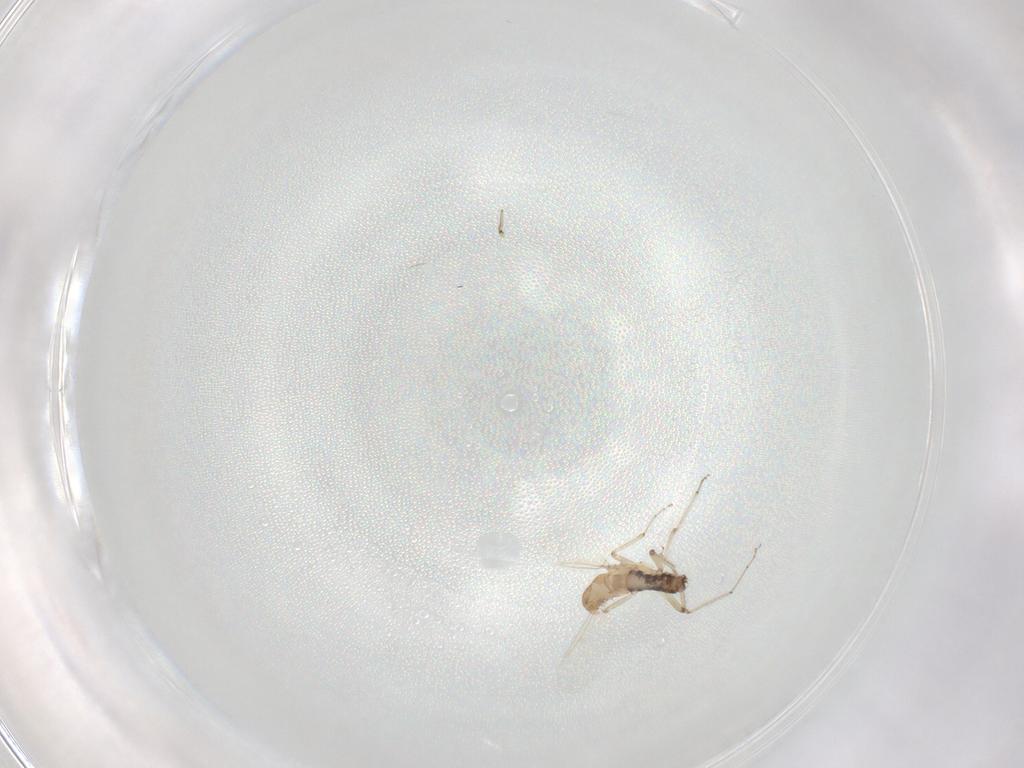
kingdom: Animalia
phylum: Arthropoda
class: Insecta
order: Diptera
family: Ceratopogonidae
